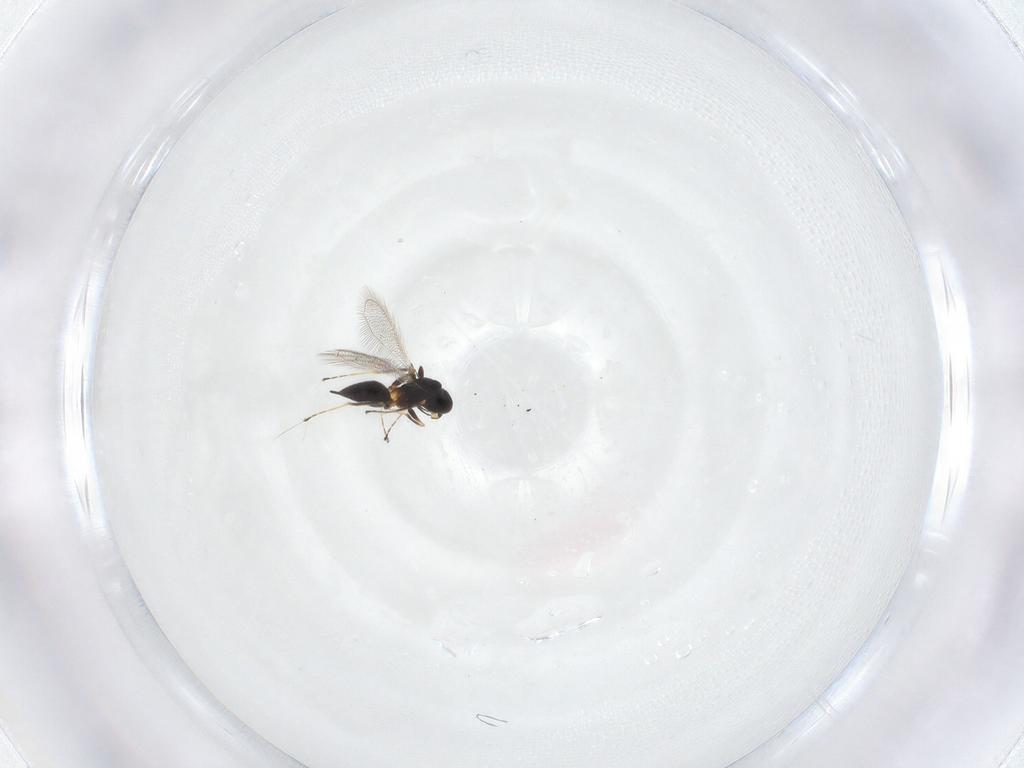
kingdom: Animalia
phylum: Arthropoda
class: Insecta
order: Hymenoptera
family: Mymaridae
